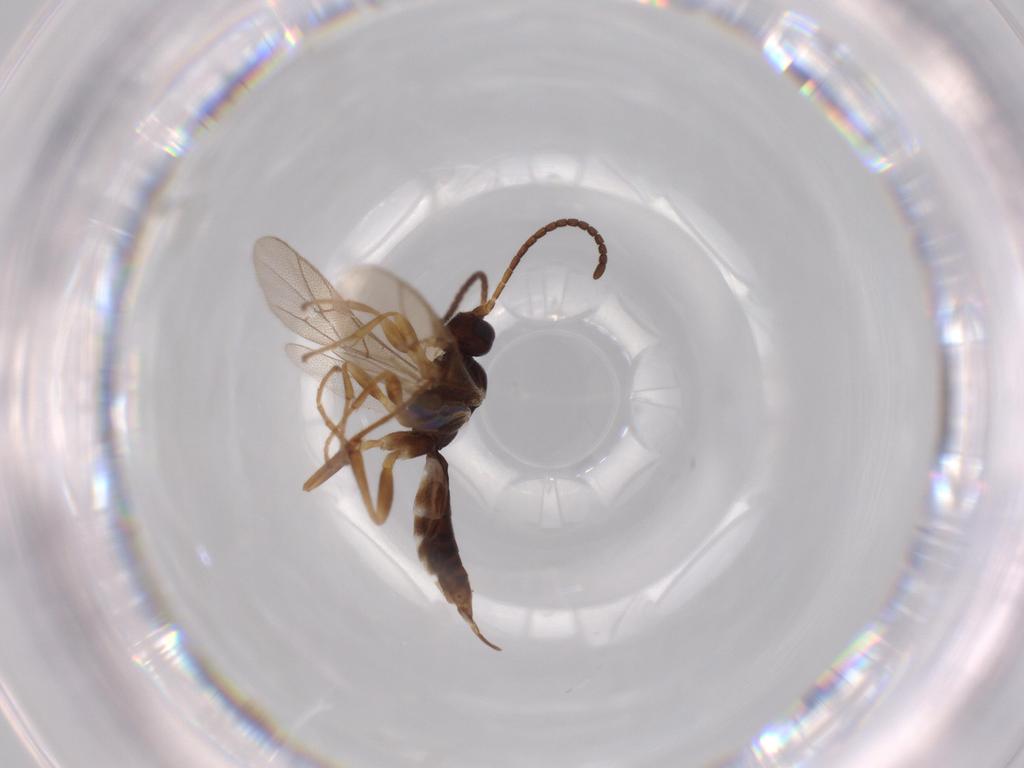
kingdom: Animalia
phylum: Arthropoda
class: Insecta
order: Hymenoptera
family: Ichneumonidae
